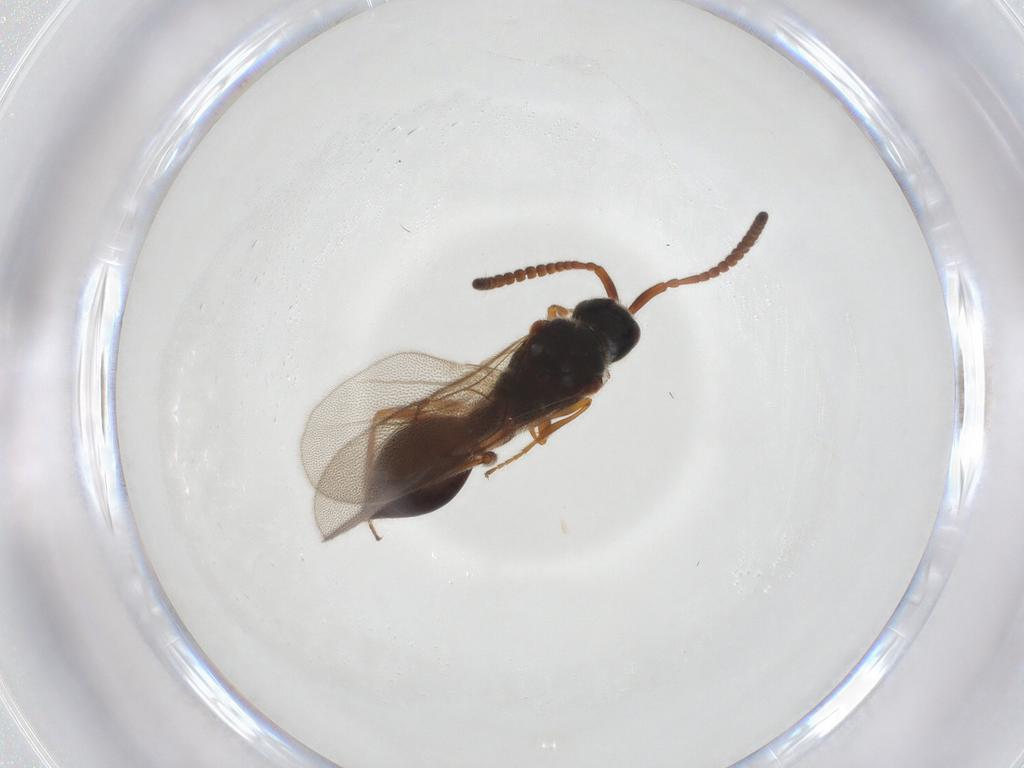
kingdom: Animalia
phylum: Arthropoda
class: Insecta
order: Hymenoptera
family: Diapriidae
